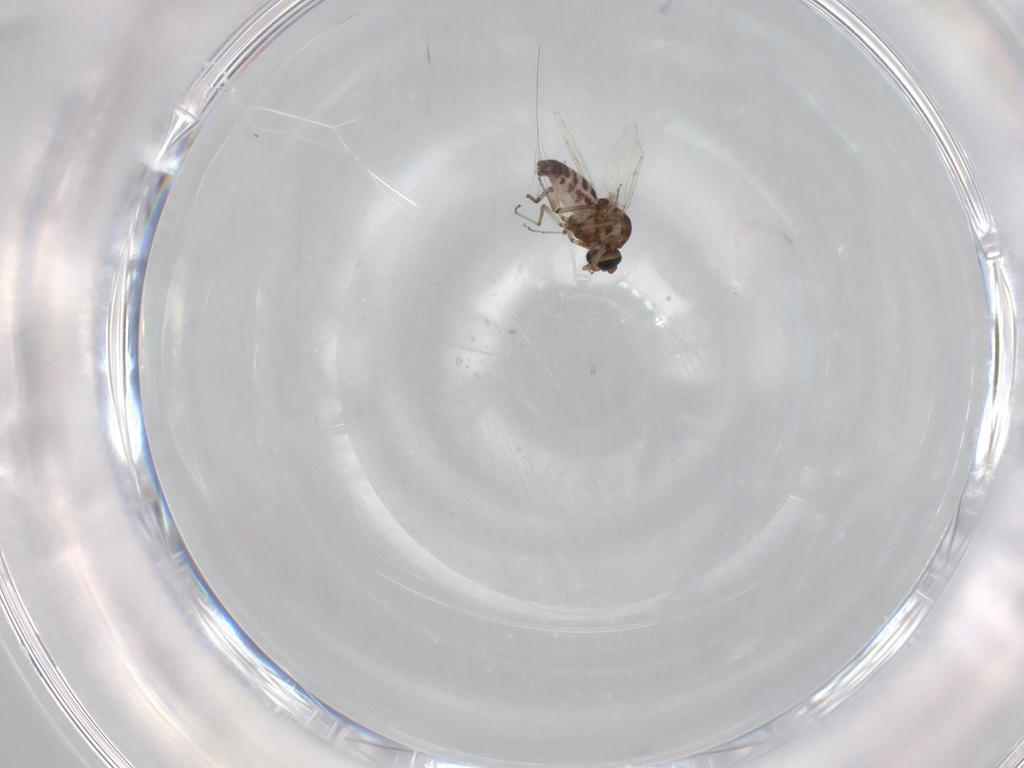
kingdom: Animalia
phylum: Arthropoda
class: Insecta
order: Diptera
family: Ceratopogonidae
